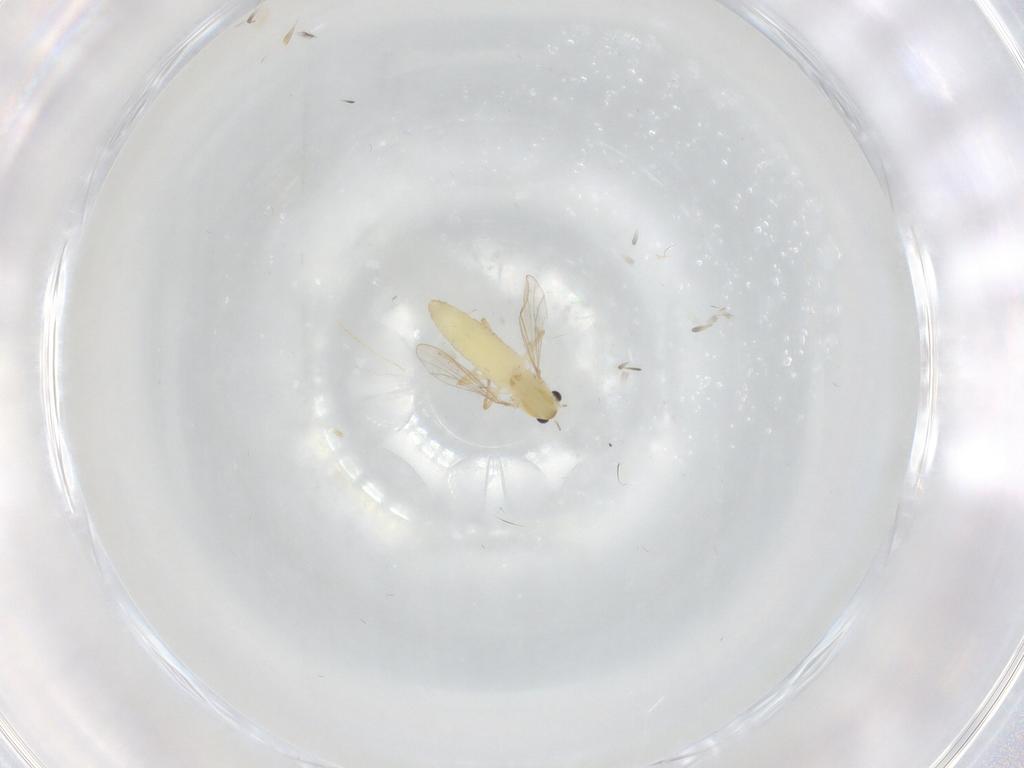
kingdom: Animalia
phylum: Arthropoda
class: Insecta
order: Diptera
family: Chironomidae
